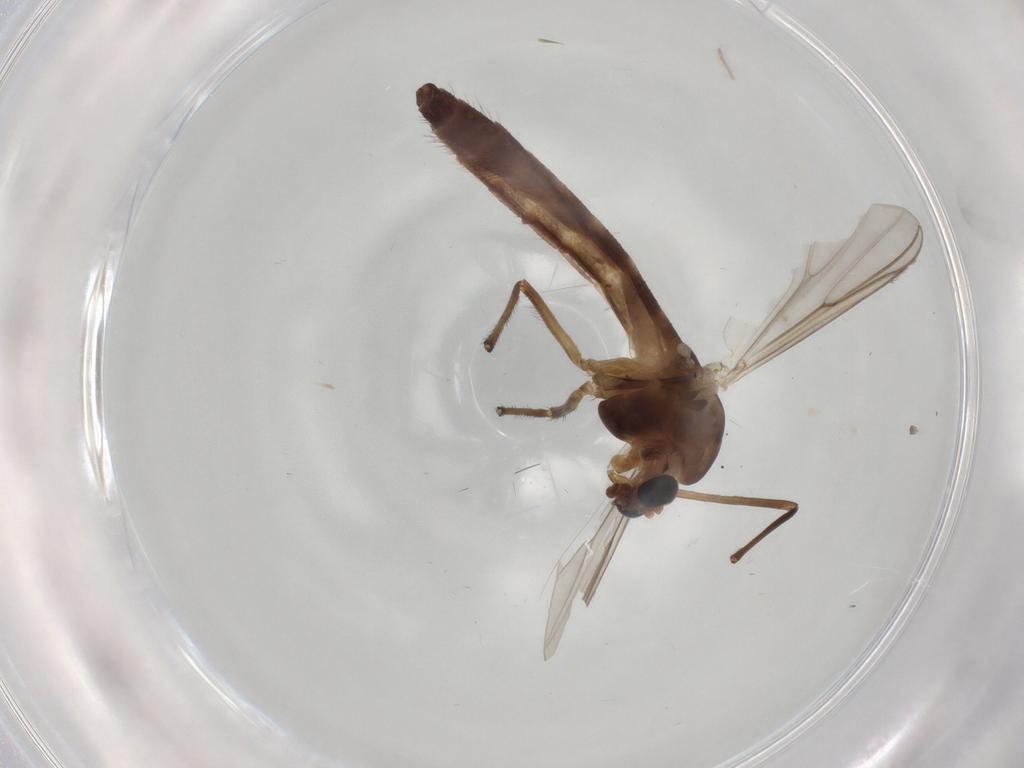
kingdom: Animalia
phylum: Arthropoda
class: Insecta
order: Diptera
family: Cecidomyiidae
